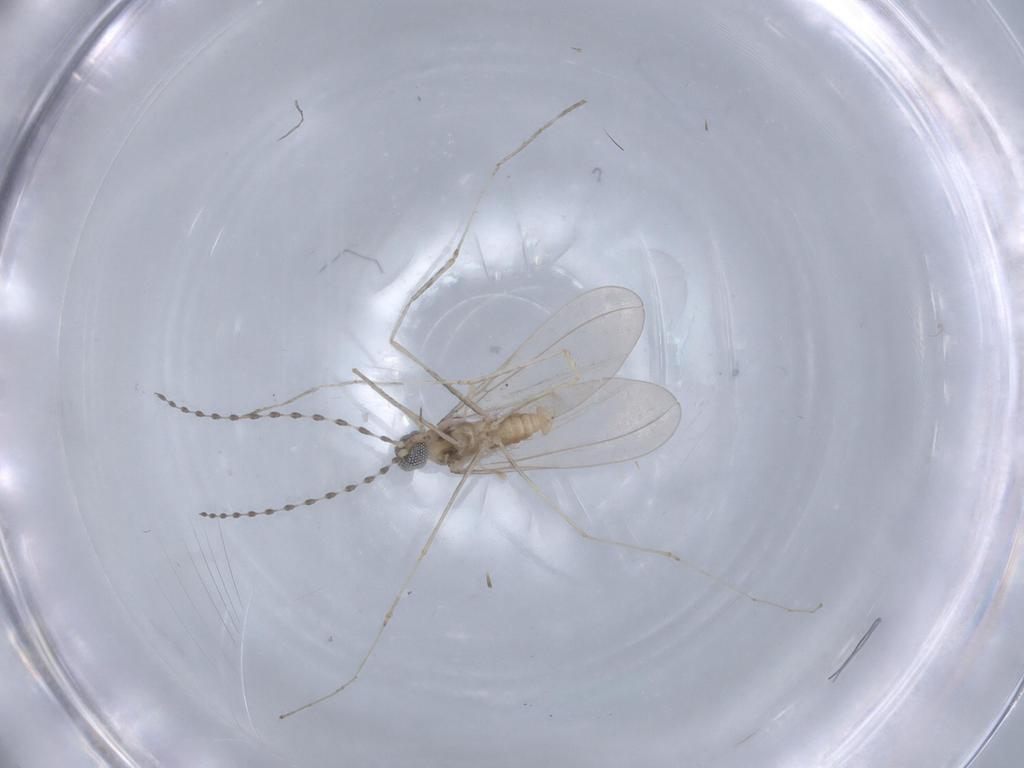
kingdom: Animalia
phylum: Arthropoda
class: Insecta
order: Diptera
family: Cecidomyiidae
